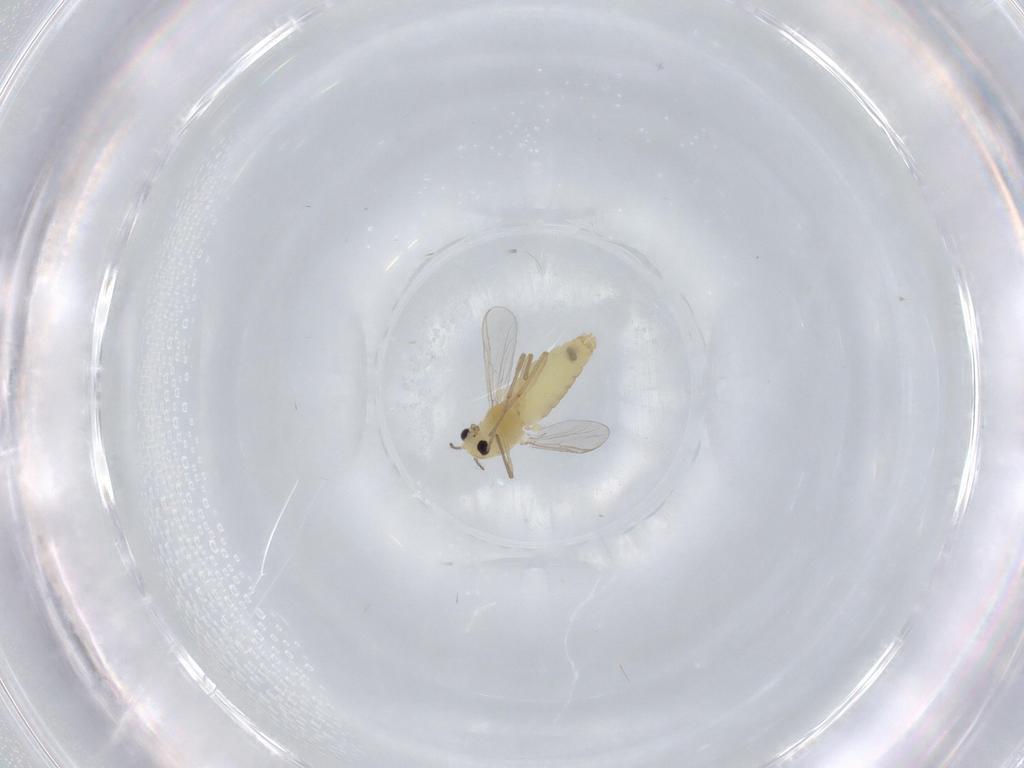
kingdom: Animalia
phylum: Arthropoda
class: Insecta
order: Diptera
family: Chironomidae
